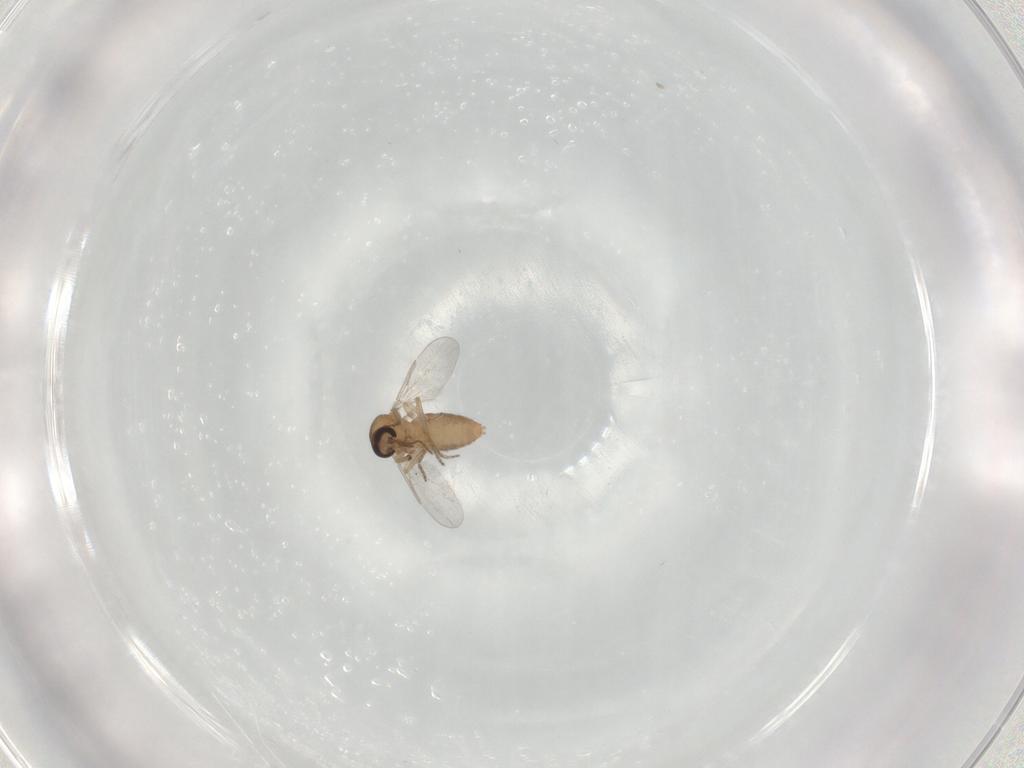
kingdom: Animalia
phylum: Arthropoda
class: Insecta
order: Diptera
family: Ceratopogonidae
